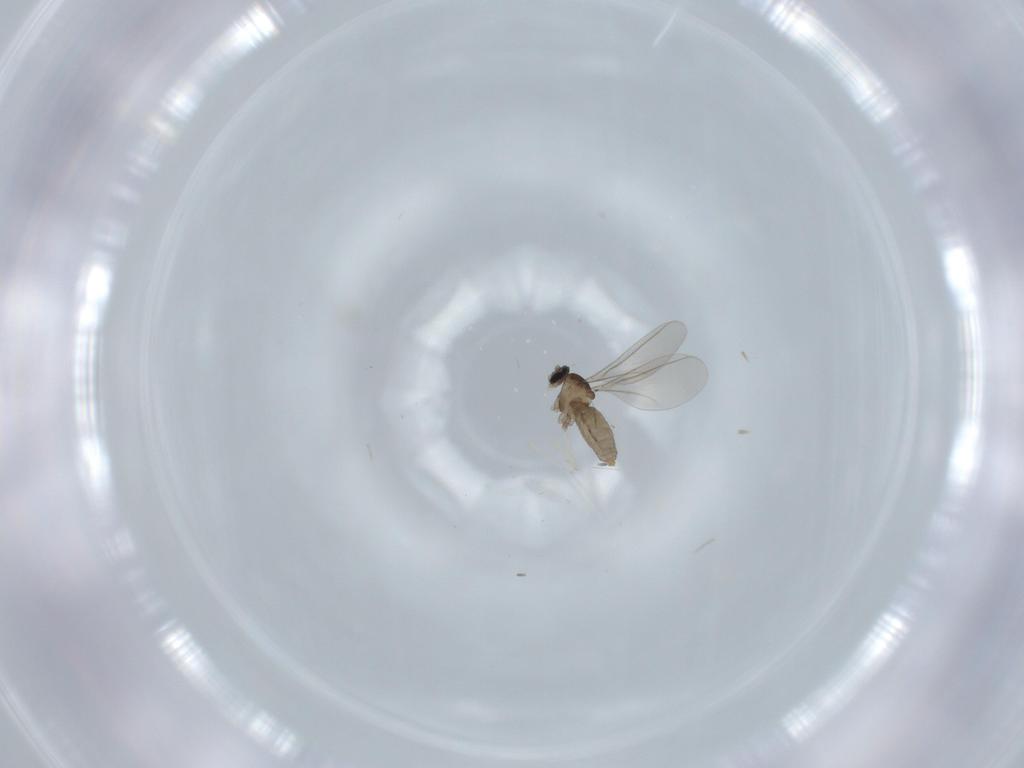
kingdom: Animalia
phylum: Arthropoda
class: Insecta
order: Diptera
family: Cecidomyiidae
